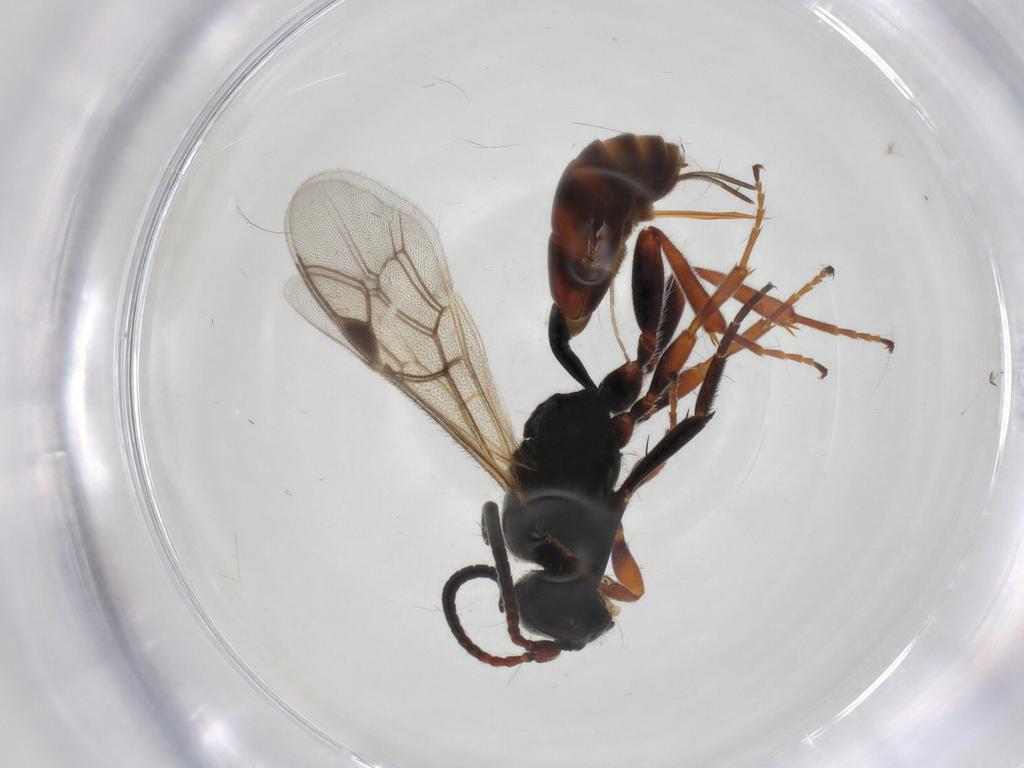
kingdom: Animalia
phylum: Arthropoda
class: Insecta
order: Hymenoptera
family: Ichneumonidae
